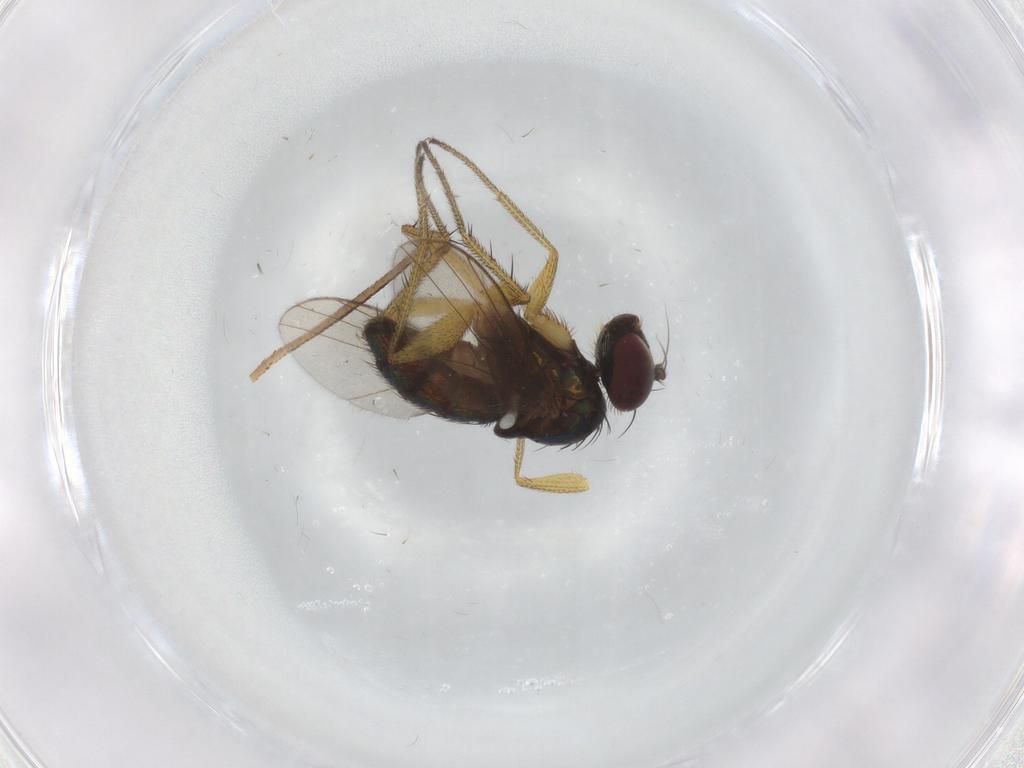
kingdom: Animalia
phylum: Arthropoda
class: Insecta
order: Diptera
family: Dolichopodidae
